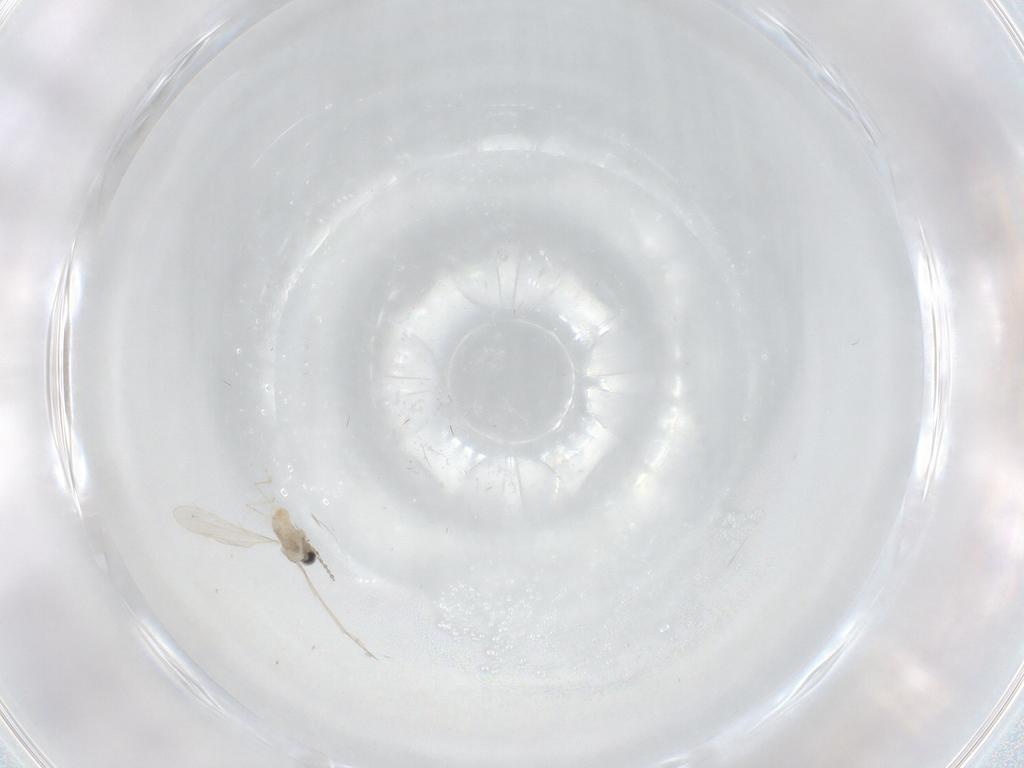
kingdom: Animalia
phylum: Arthropoda
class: Insecta
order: Diptera
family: Cecidomyiidae
